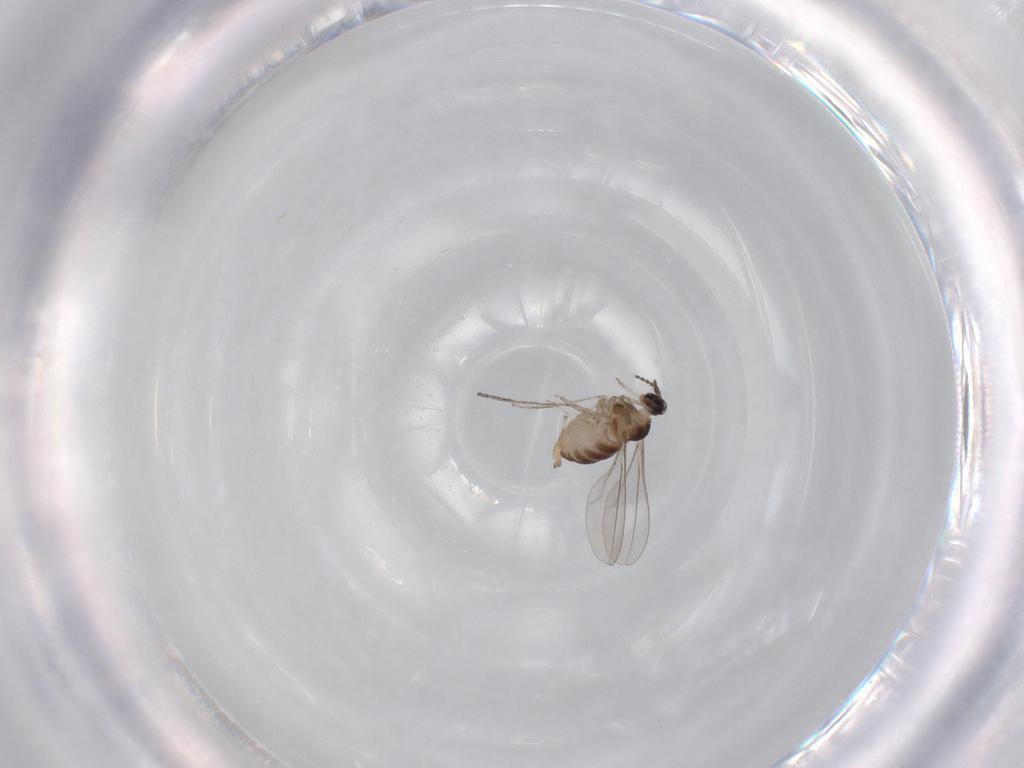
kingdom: Animalia
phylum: Arthropoda
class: Insecta
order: Diptera
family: Cecidomyiidae
